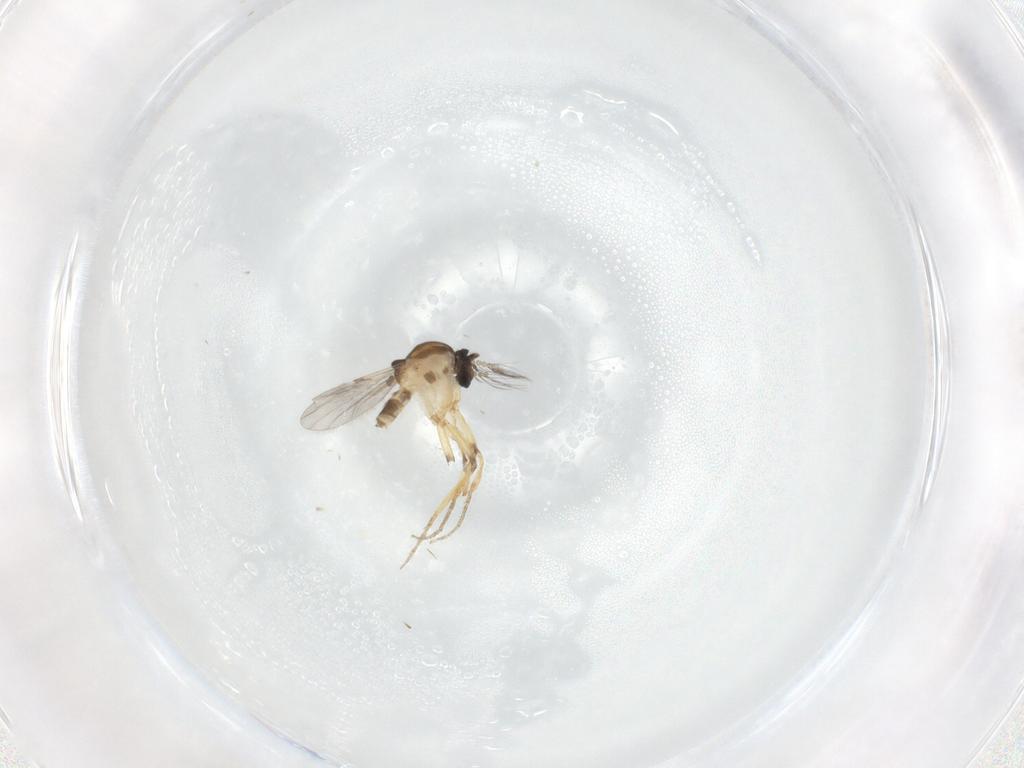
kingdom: Animalia
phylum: Arthropoda
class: Insecta
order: Diptera
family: Ceratopogonidae
